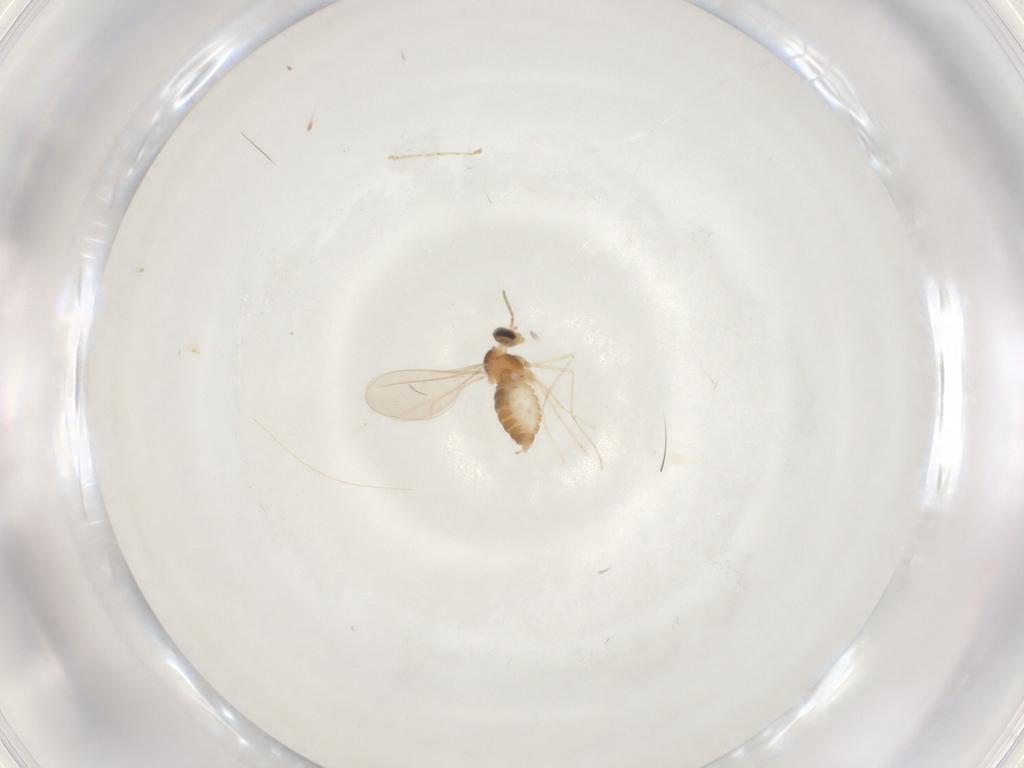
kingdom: Animalia
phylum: Arthropoda
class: Insecta
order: Diptera
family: Cecidomyiidae
